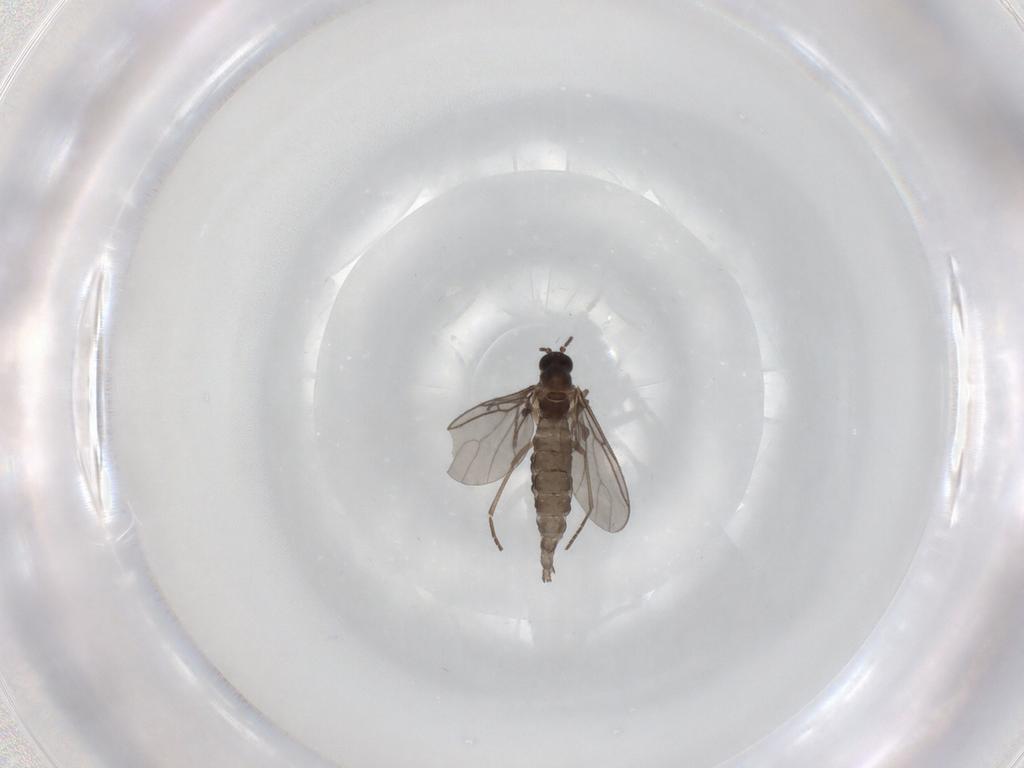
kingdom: Animalia
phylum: Arthropoda
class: Insecta
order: Diptera
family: Sciaridae
